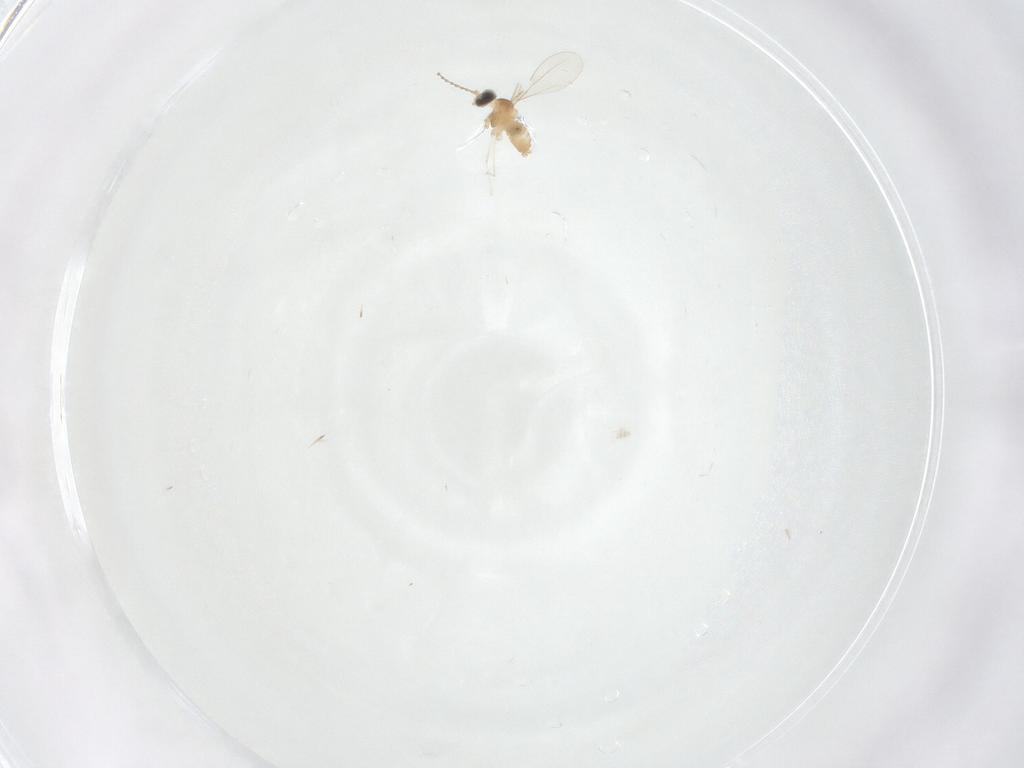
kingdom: Animalia
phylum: Arthropoda
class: Insecta
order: Diptera
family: Cecidomyiidae
